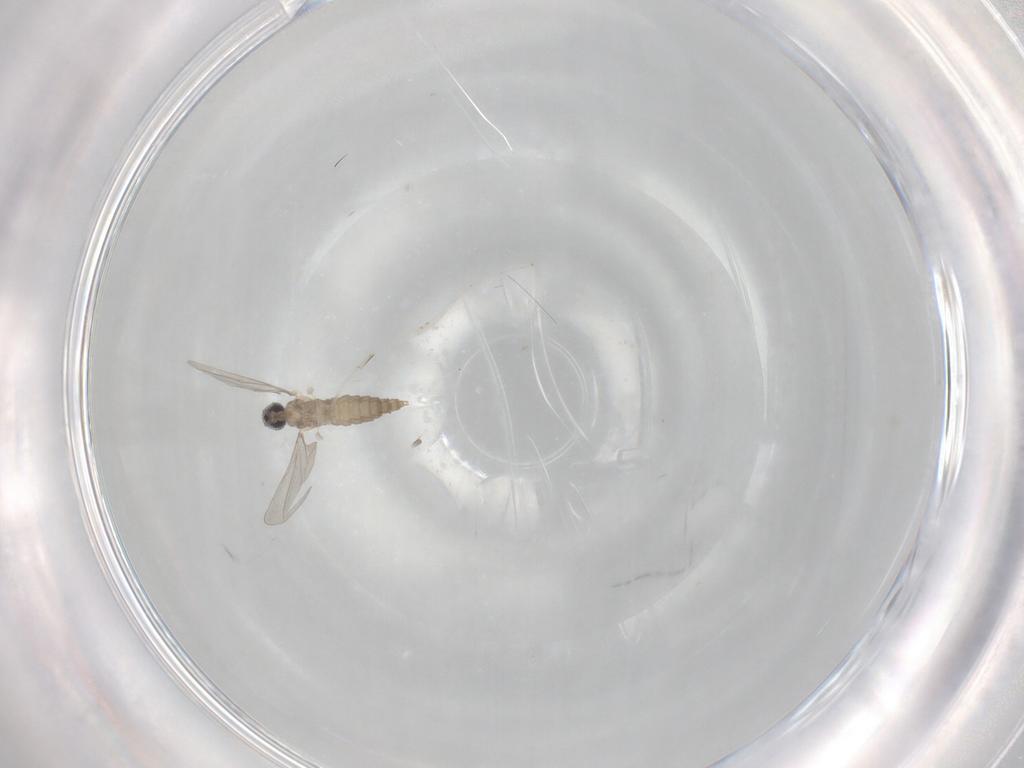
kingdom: Animalia
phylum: Arthropoda
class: Insecta
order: Diptera
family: Cecidomyiidae
